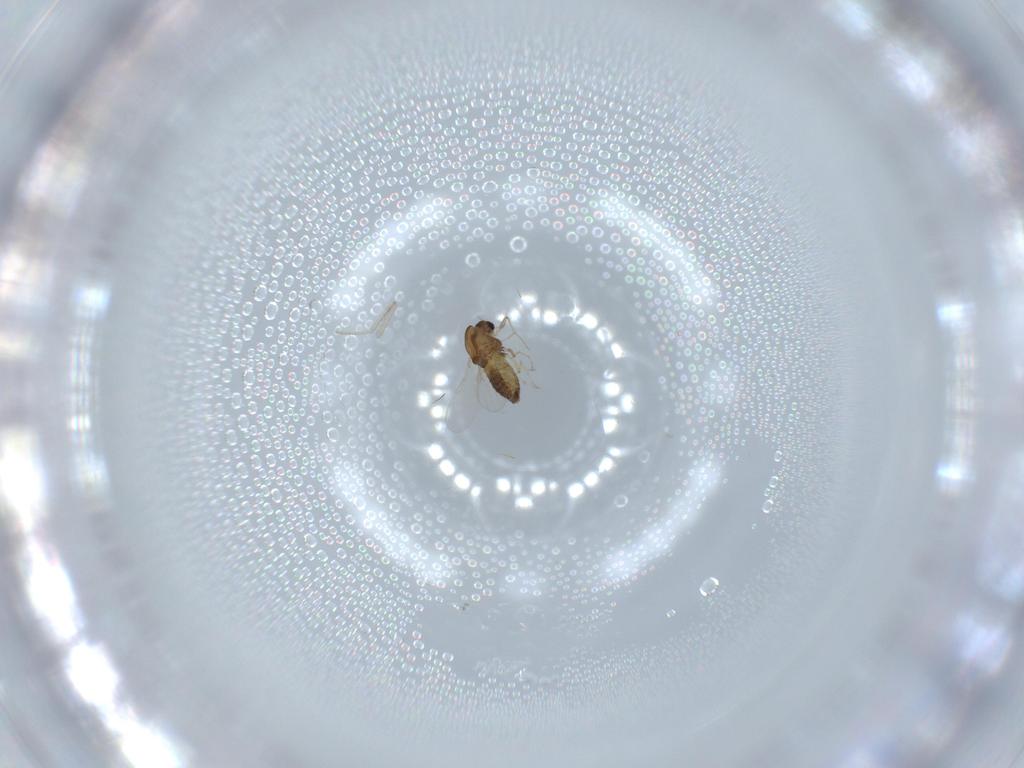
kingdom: Animalia
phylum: Arthropoda
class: Insecta
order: Diptera
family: Chironomidae
